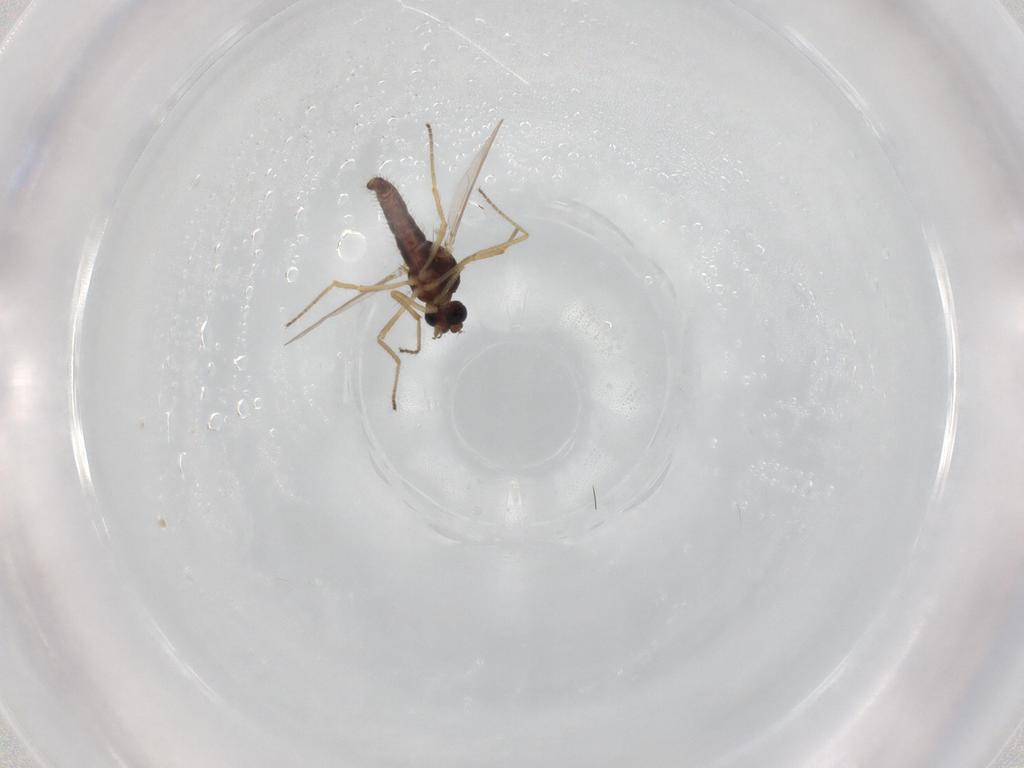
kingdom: Animalia
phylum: Arthropoda
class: Insecta
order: Diptera
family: Ceratopogonidae
